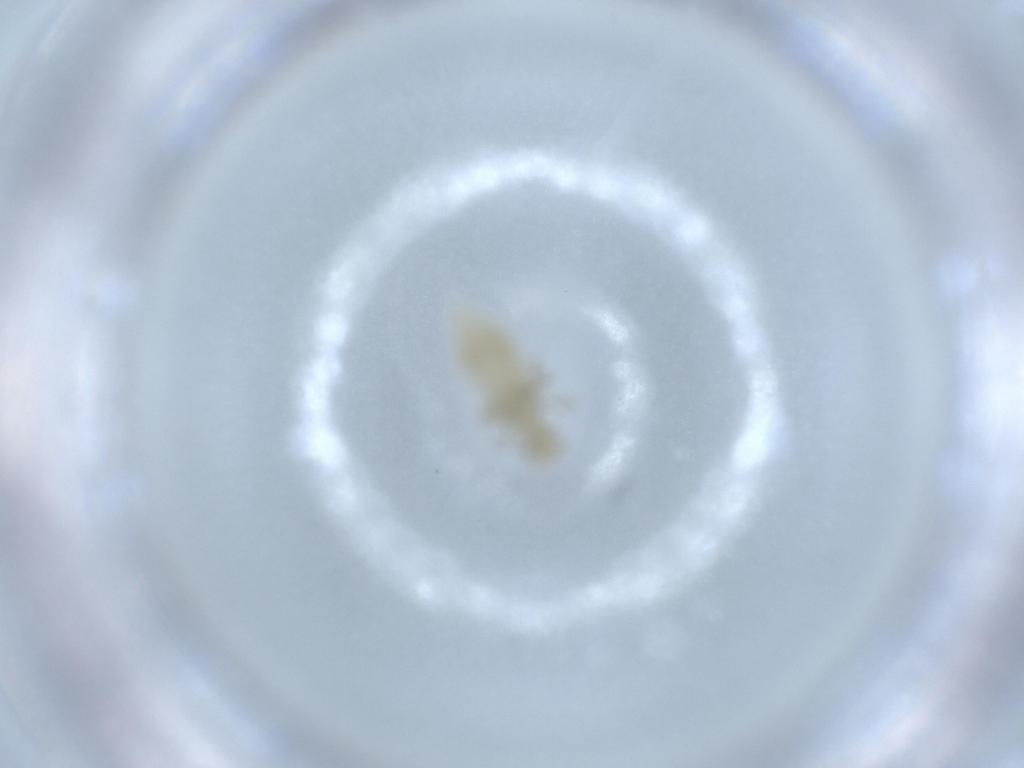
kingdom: Animalia
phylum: Arthropoda
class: Insecta
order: Psocodea
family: Caeciliusidae
